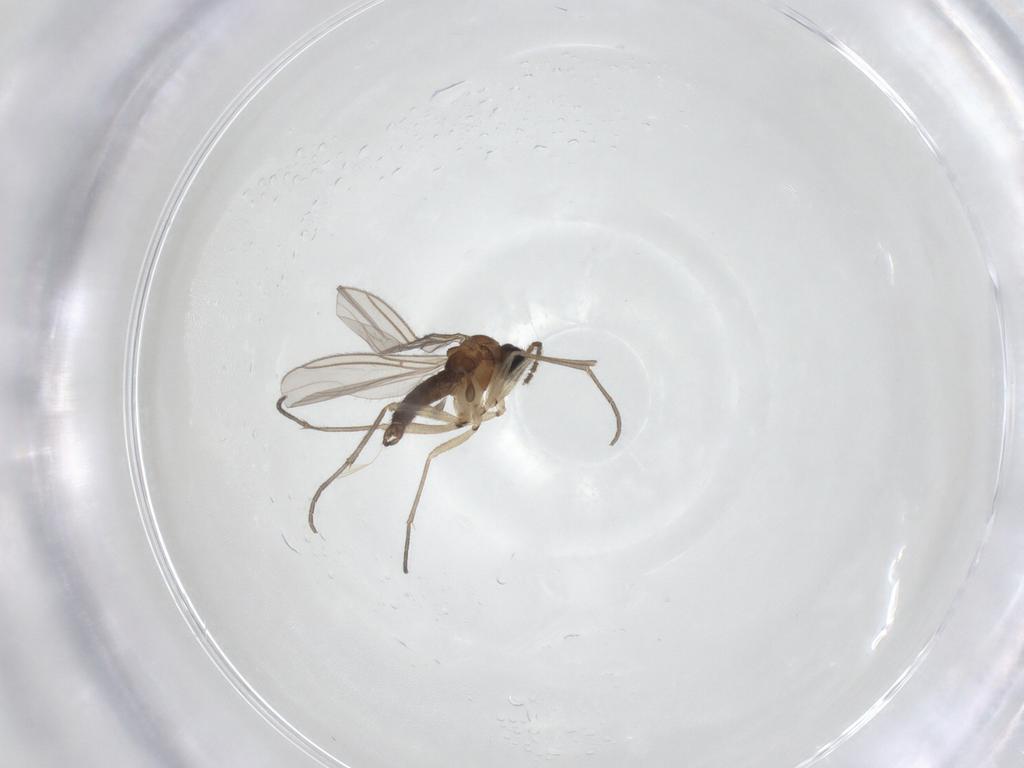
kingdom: Animalia
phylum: Arthropoda
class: Insecta
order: Diptera
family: Sciaridae
